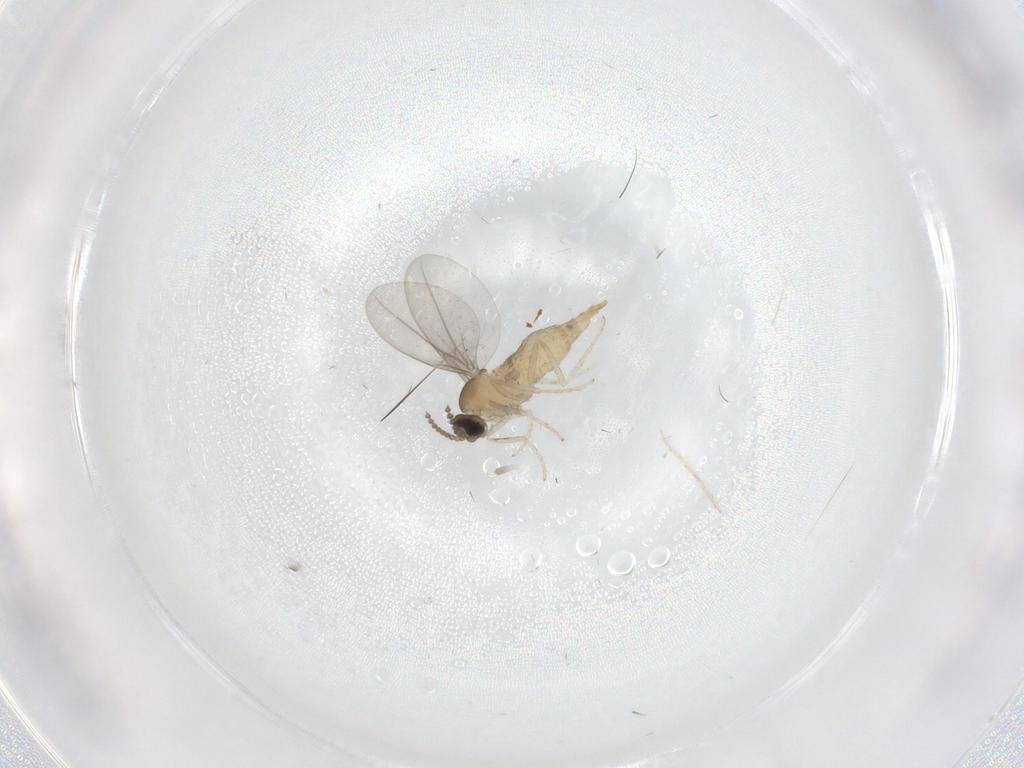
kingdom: Animalia
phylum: Arthropoda
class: Insecta
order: Diptera
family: Chironomidae
